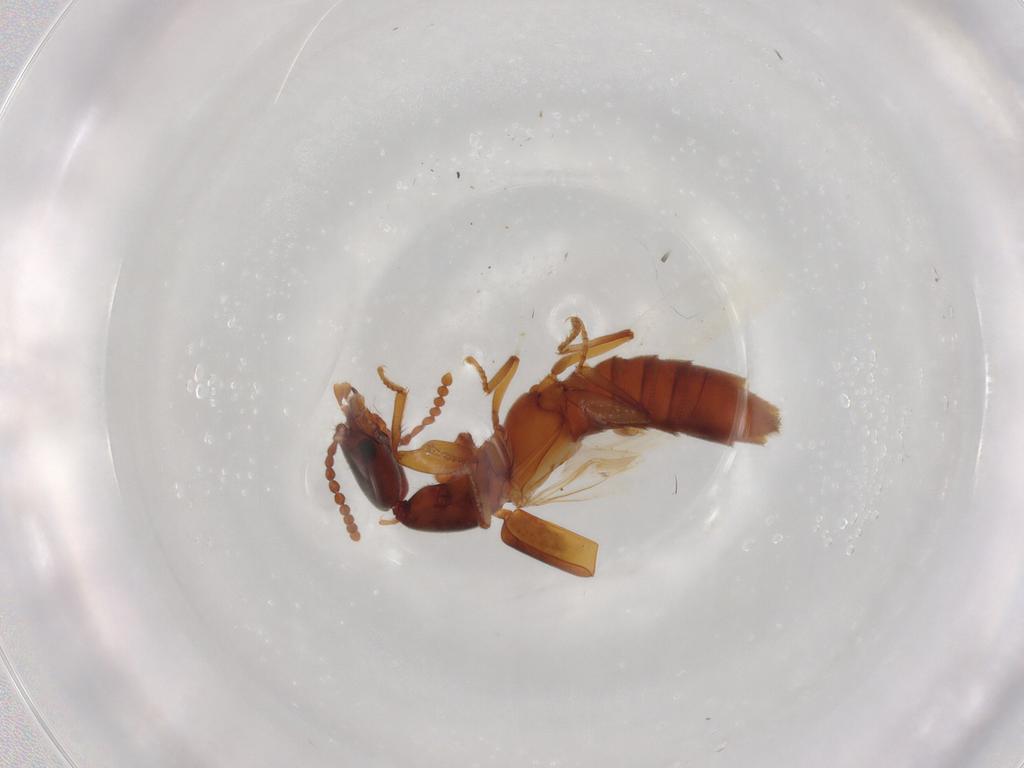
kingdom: Animalia
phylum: Arthropoda
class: Insecta
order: Coleoptera
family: Staphylinidae
